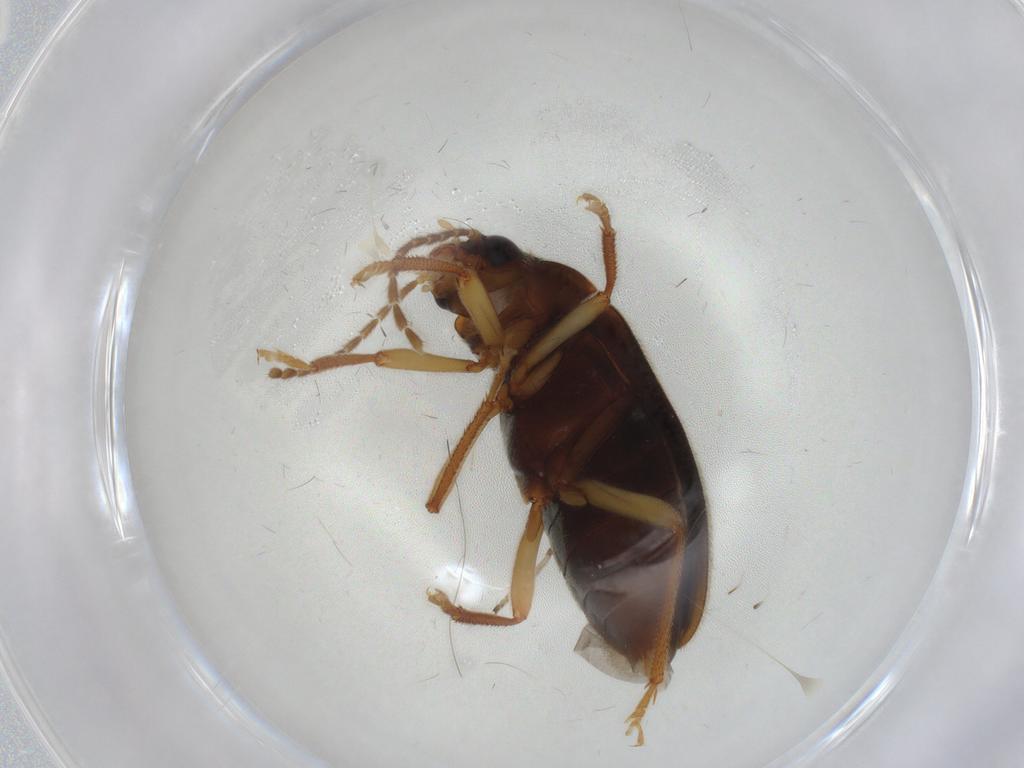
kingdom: Animalia
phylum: Arthropoda
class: Insecta
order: Coleoptera
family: Ptilodactylidae
